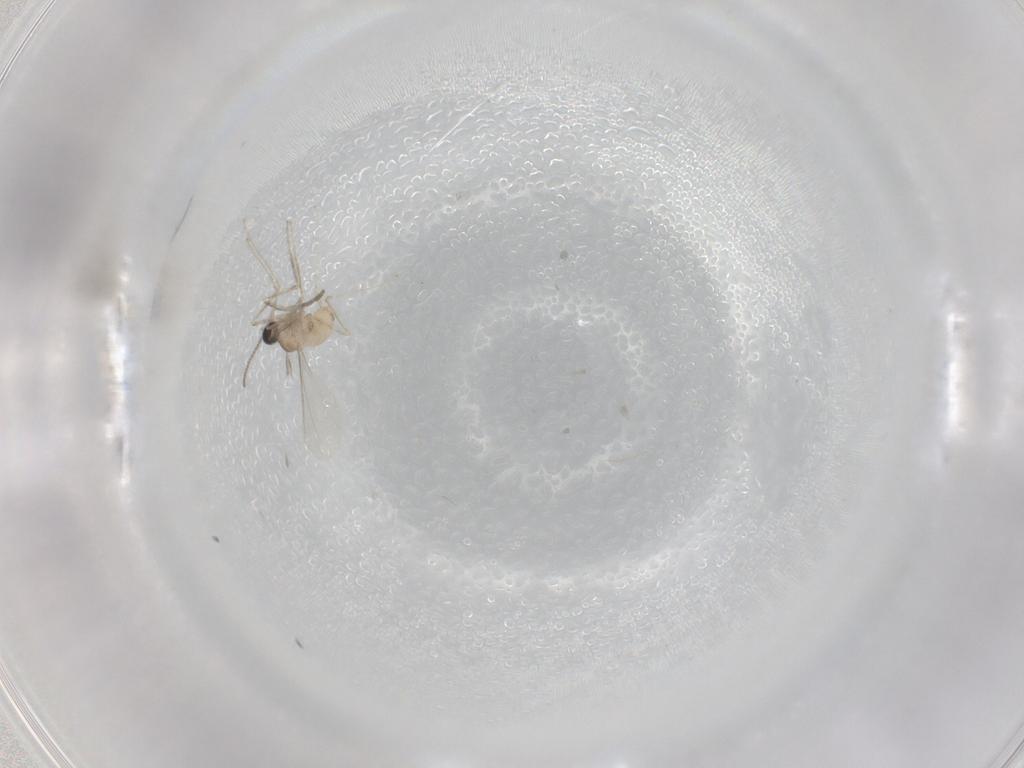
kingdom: Animalia
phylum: Arthropoda
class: Insecta
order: Diptera
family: Cecidomyiidae
